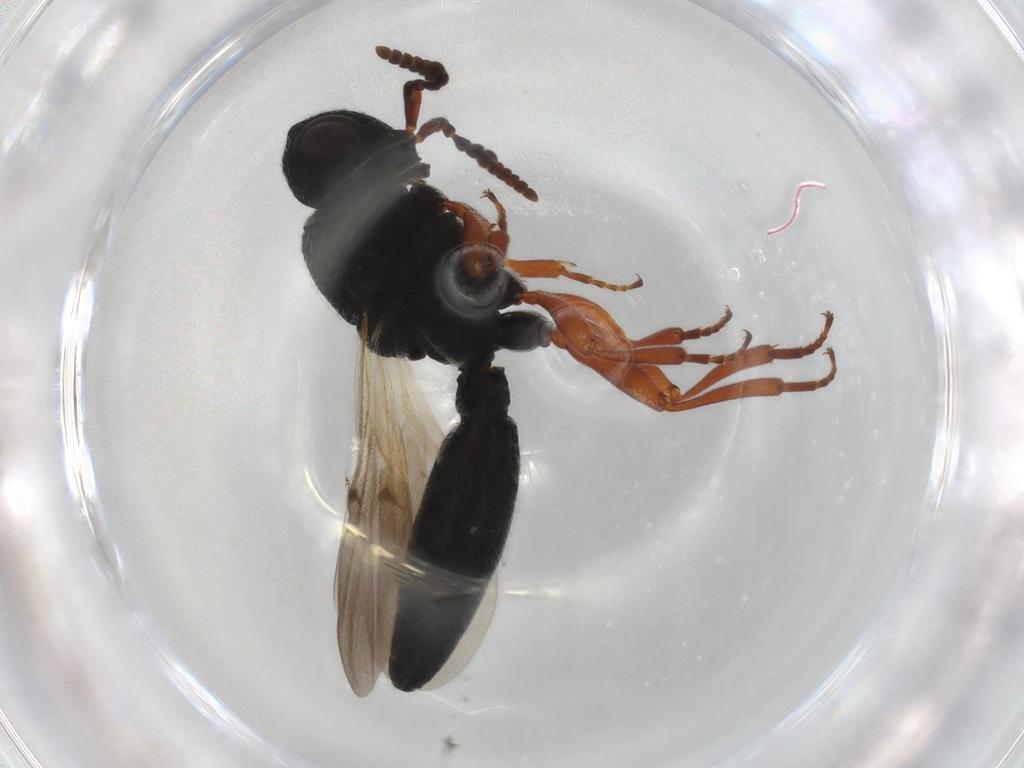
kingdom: Animalia
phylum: Arthropoda
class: Insecta
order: Hymenoptera
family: Scelionidae
